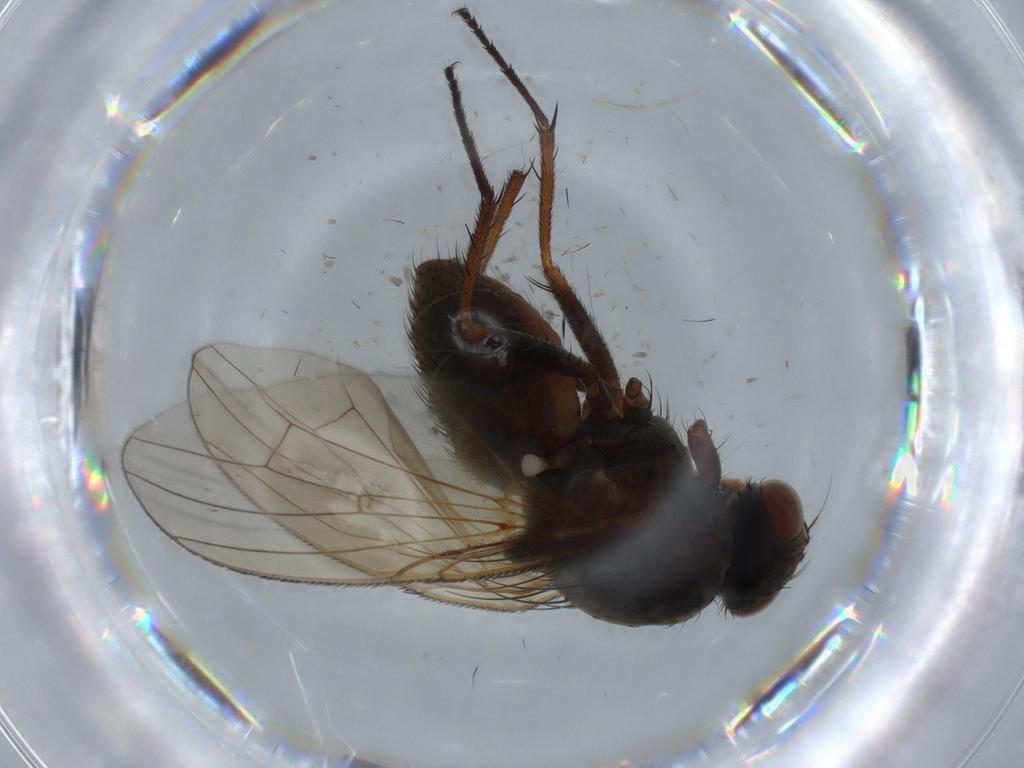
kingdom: Animalia
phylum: Arthropoda
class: Insecta
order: Diptera
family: Anthomyiidae
